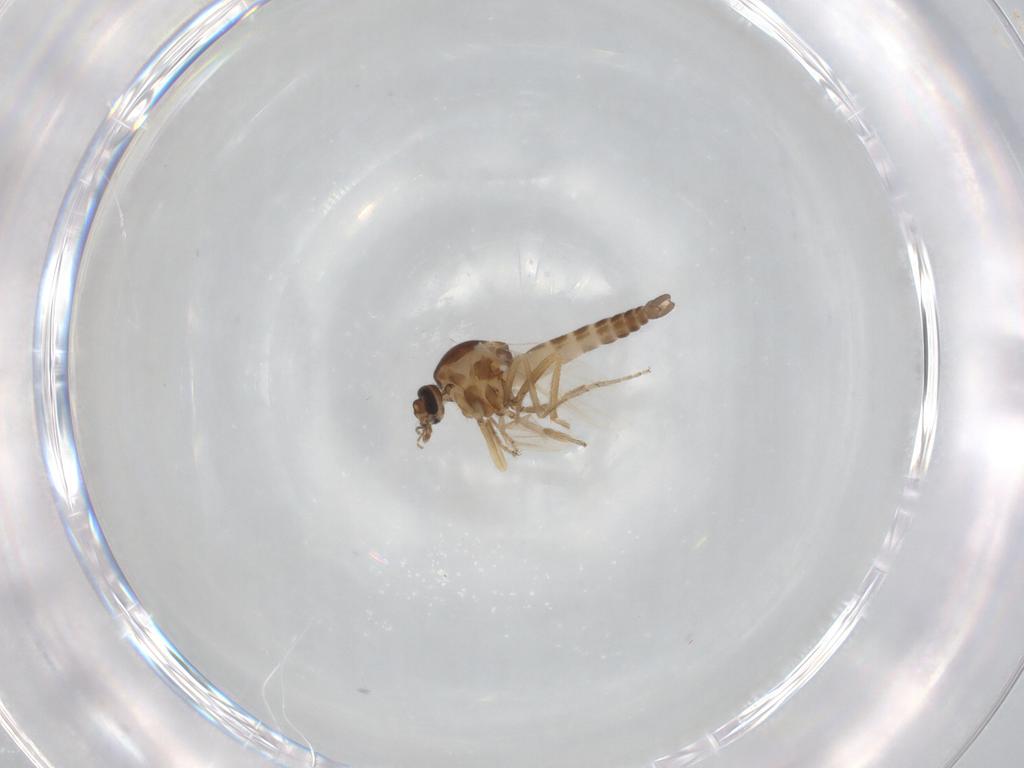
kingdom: Animalia
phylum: Arthropoda
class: Insecta
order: Diptera
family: Ceratopogonidae
